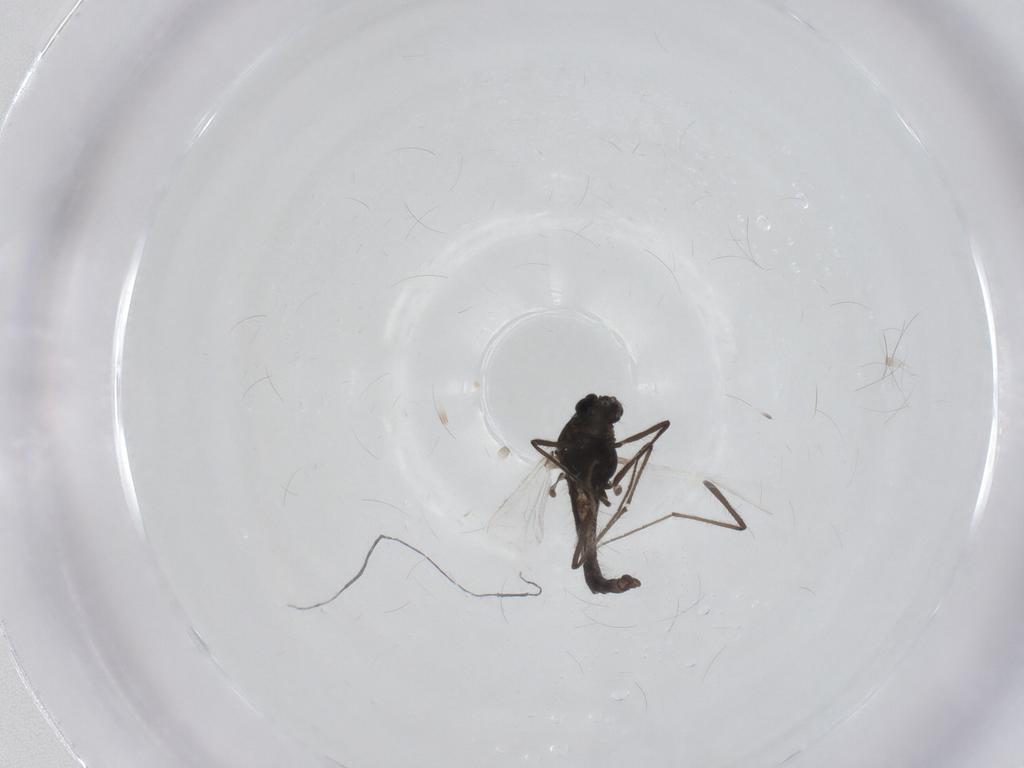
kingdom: Animalia
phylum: Arthropoda
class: Insecta
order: Diptera
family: Chironomidae
